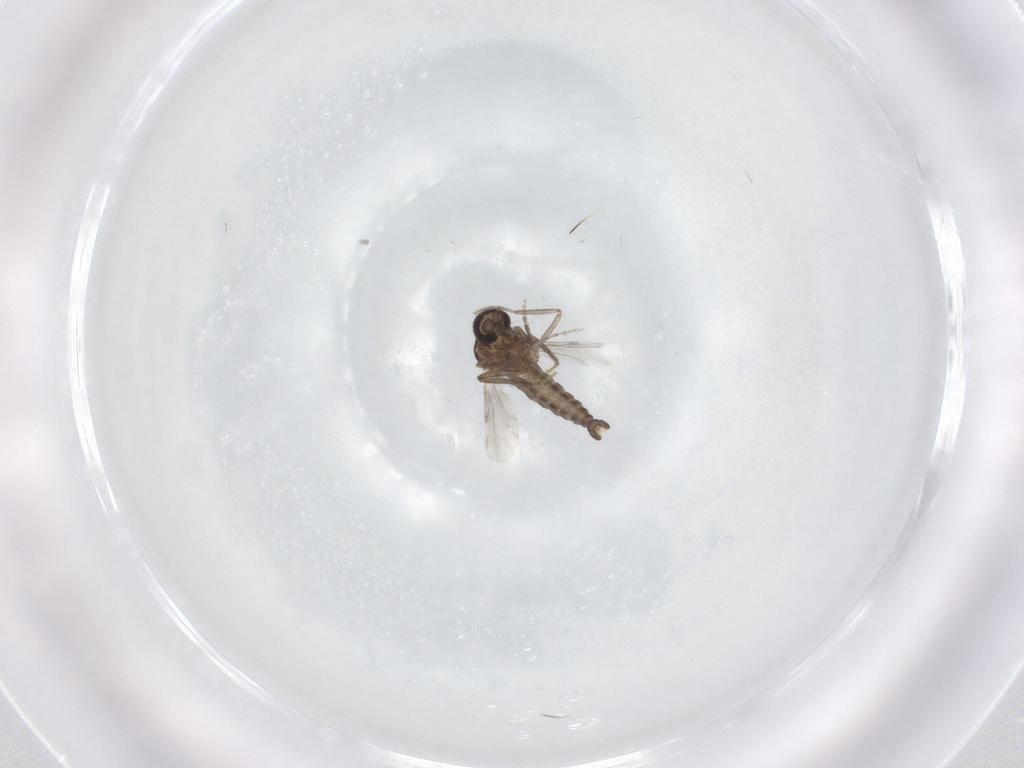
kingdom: Animalia
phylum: Arthropoda
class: Insecta
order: Diptera
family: Ceratopogonidae
